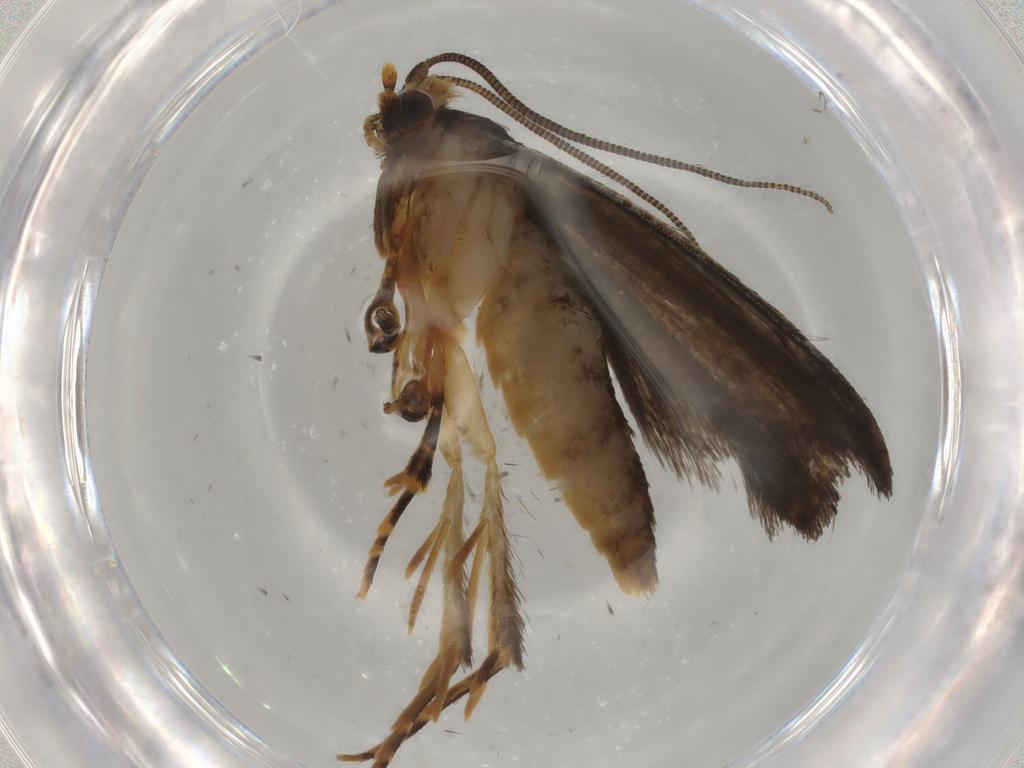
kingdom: Animalia
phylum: Arthropoda
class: Insecta
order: Lepidoptera
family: Tineidae
